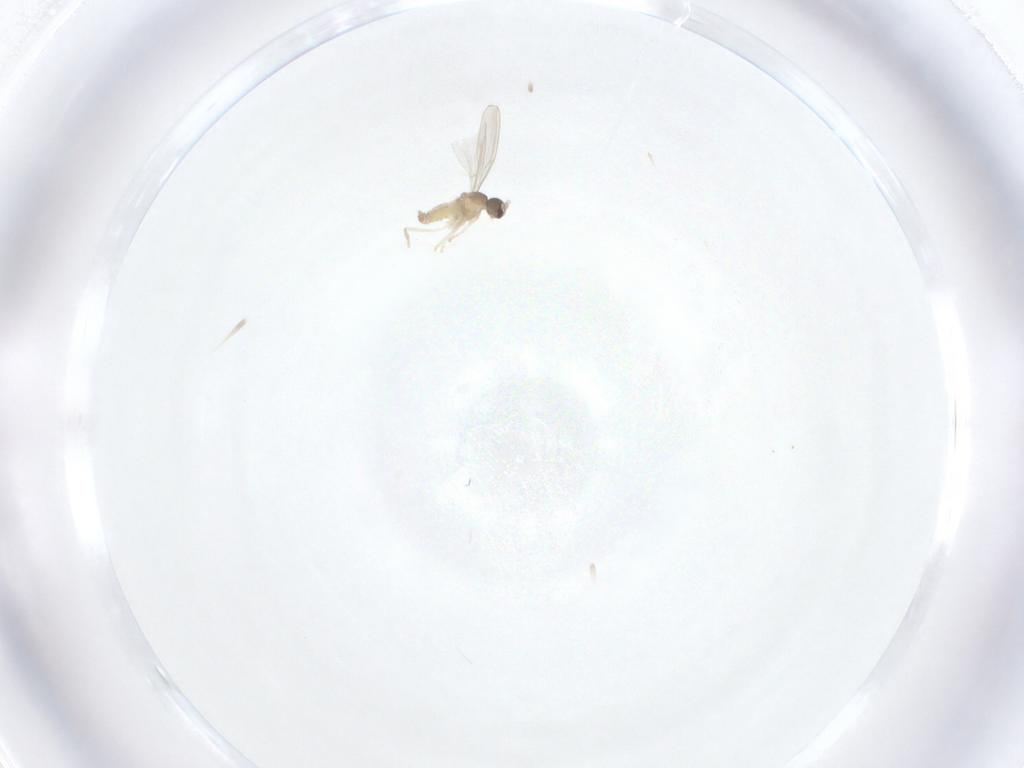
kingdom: Animalia
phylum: Arthropoda
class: Insecta
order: Diptera
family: Cecidomyiidae
